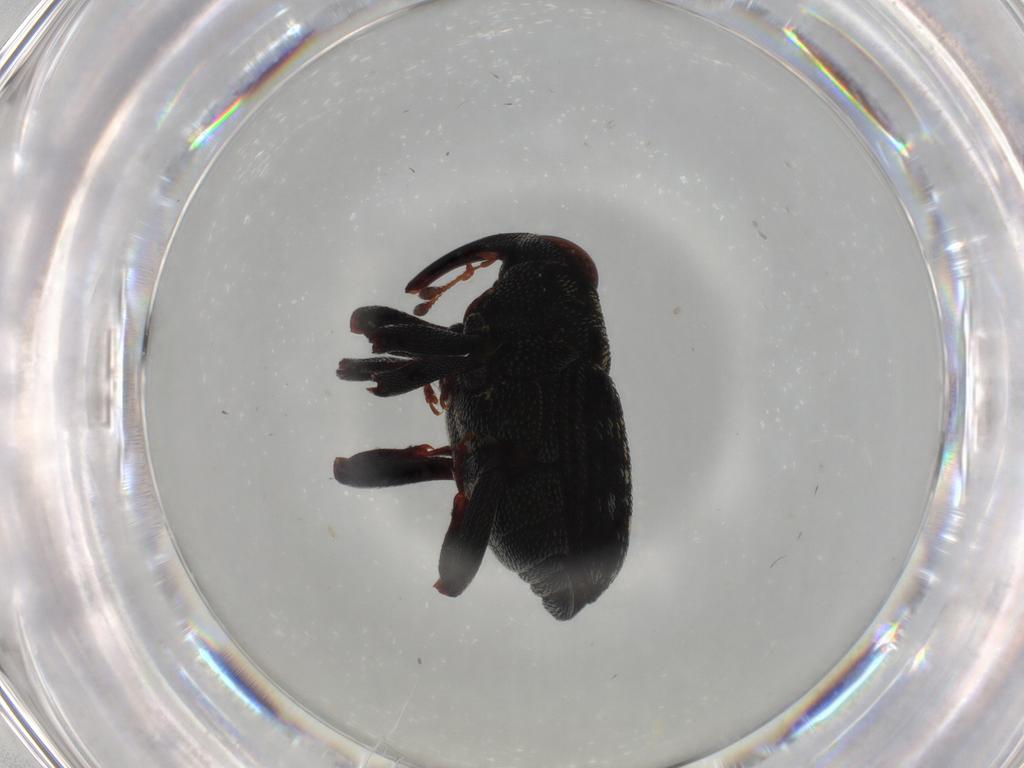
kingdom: Animalia
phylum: Arthropoda
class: Insecta
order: Coleoptera
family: Curculionidae
